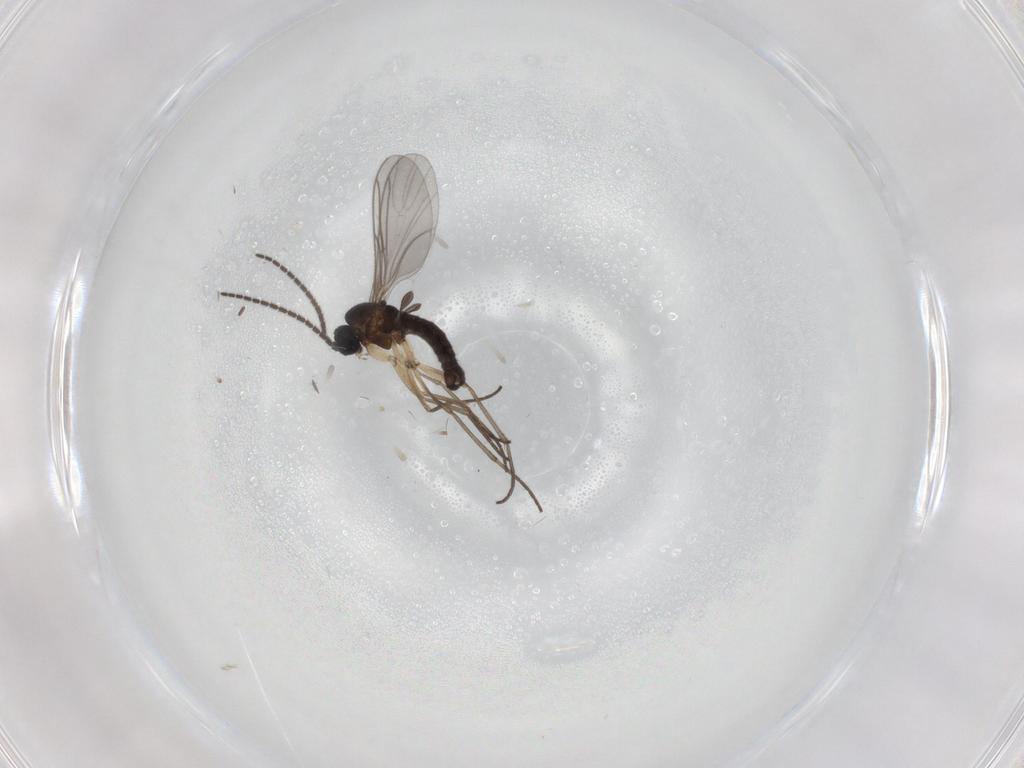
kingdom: Animalia
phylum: Arthropoda
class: Insecta
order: Diptera
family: Sciaridae
